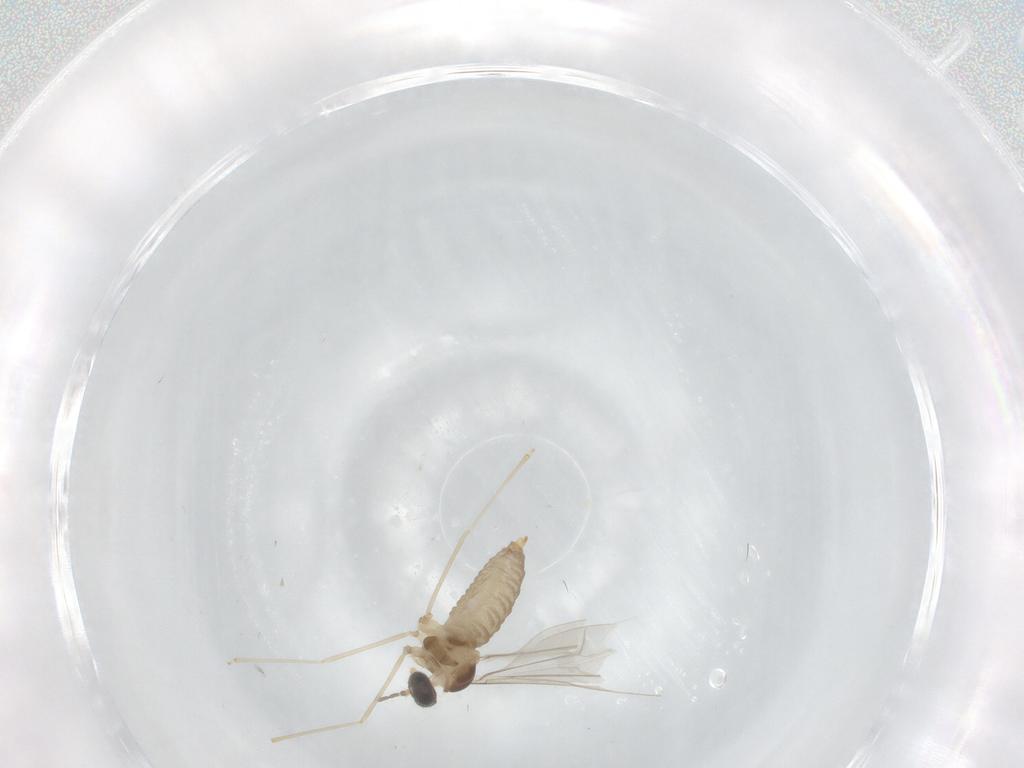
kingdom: Animalia
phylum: Arthropoda
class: Insecta
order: Diptera
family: Cecidomyiidae
